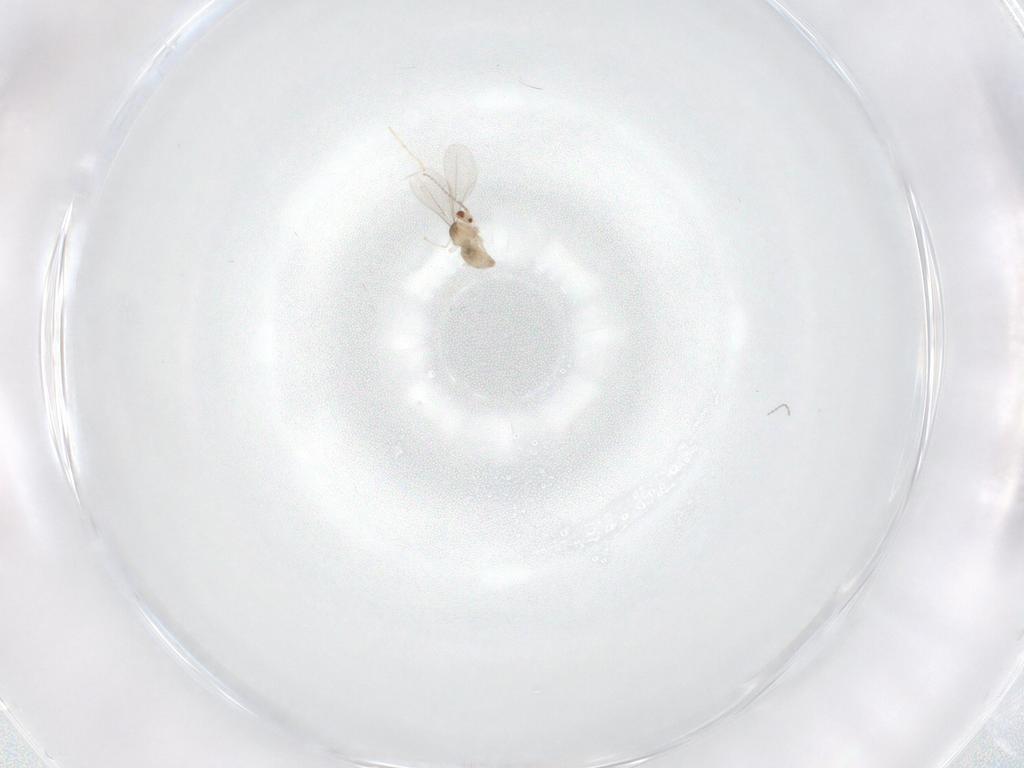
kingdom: Animalia
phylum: Arthropoda
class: Insecta
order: Diptera
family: Cecidomyiidae
